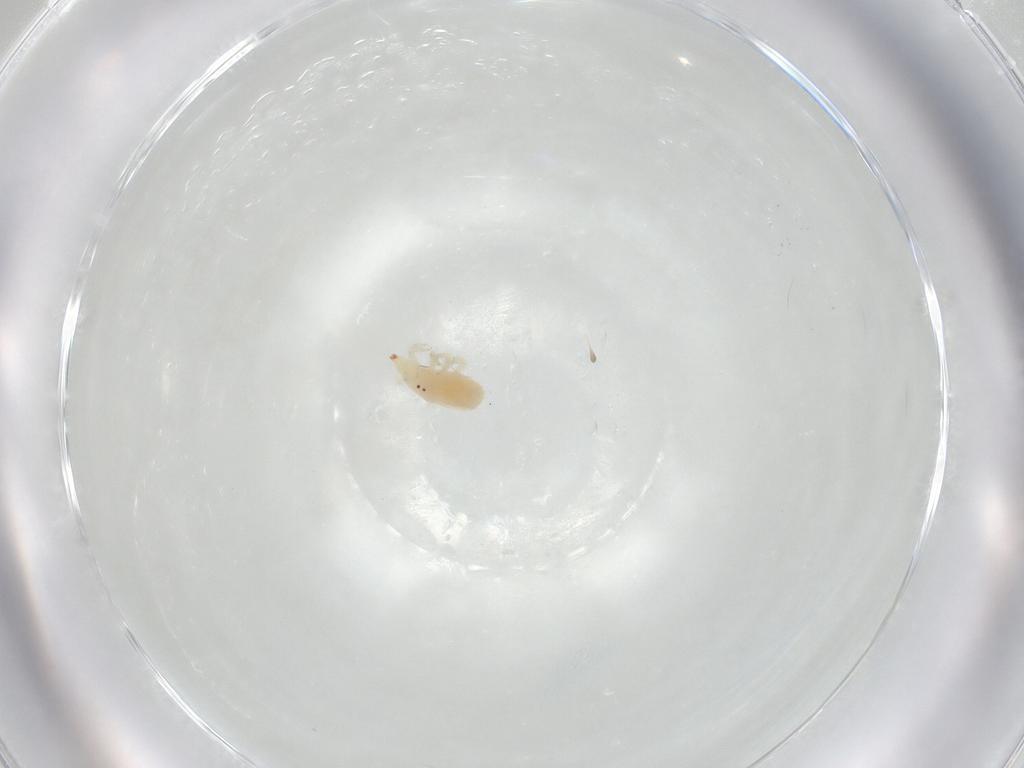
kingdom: Animalia
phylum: Arthropoda
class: Arachnida
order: Trombidiformes
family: Bdellidae
